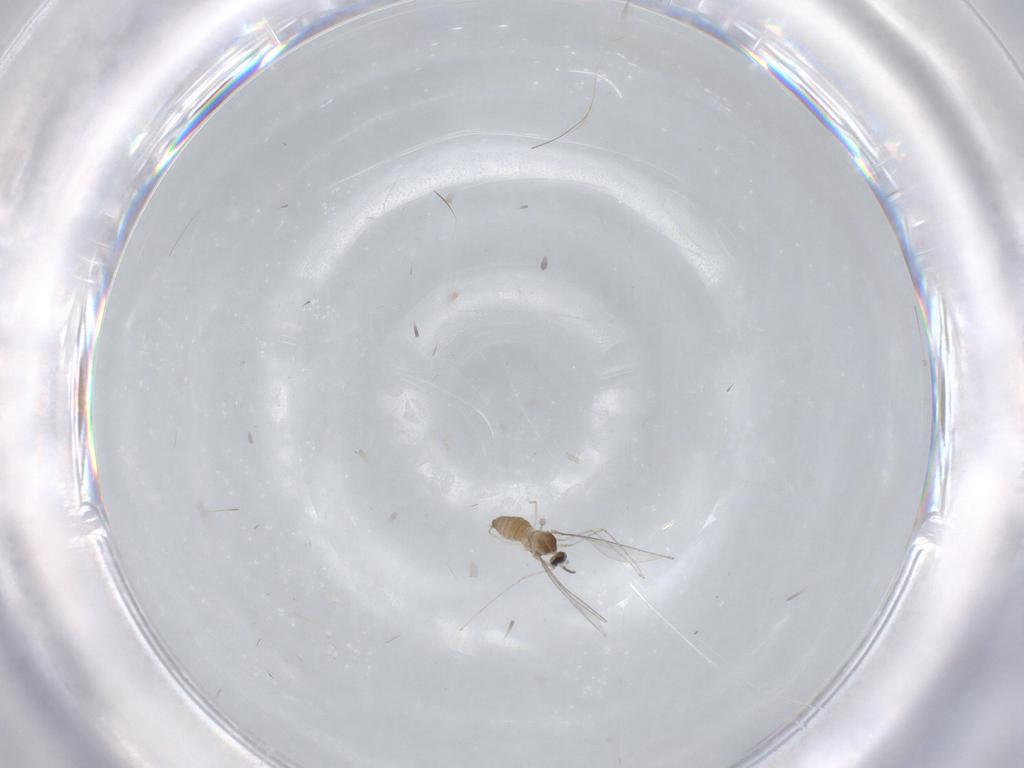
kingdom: Animalia
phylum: Arthropoda
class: Insecta
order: Diptera
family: Cecidomyiidae
